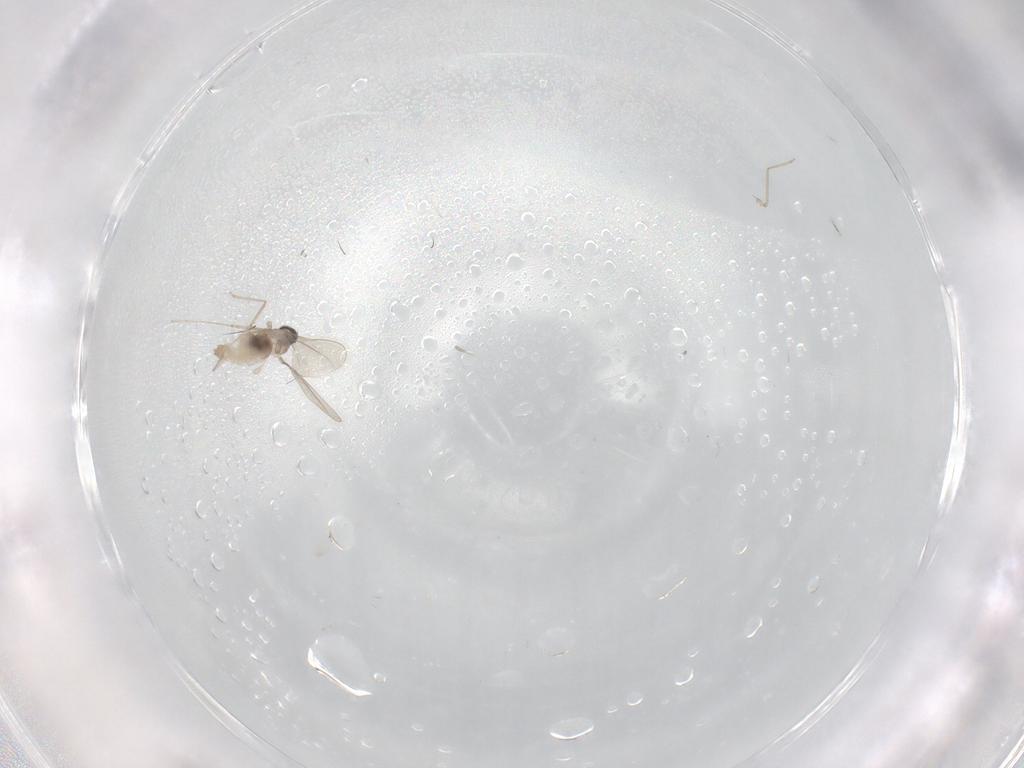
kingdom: Animalia
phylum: Arthropoda
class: Insecta
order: Diptera
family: Cecidomyiidae
